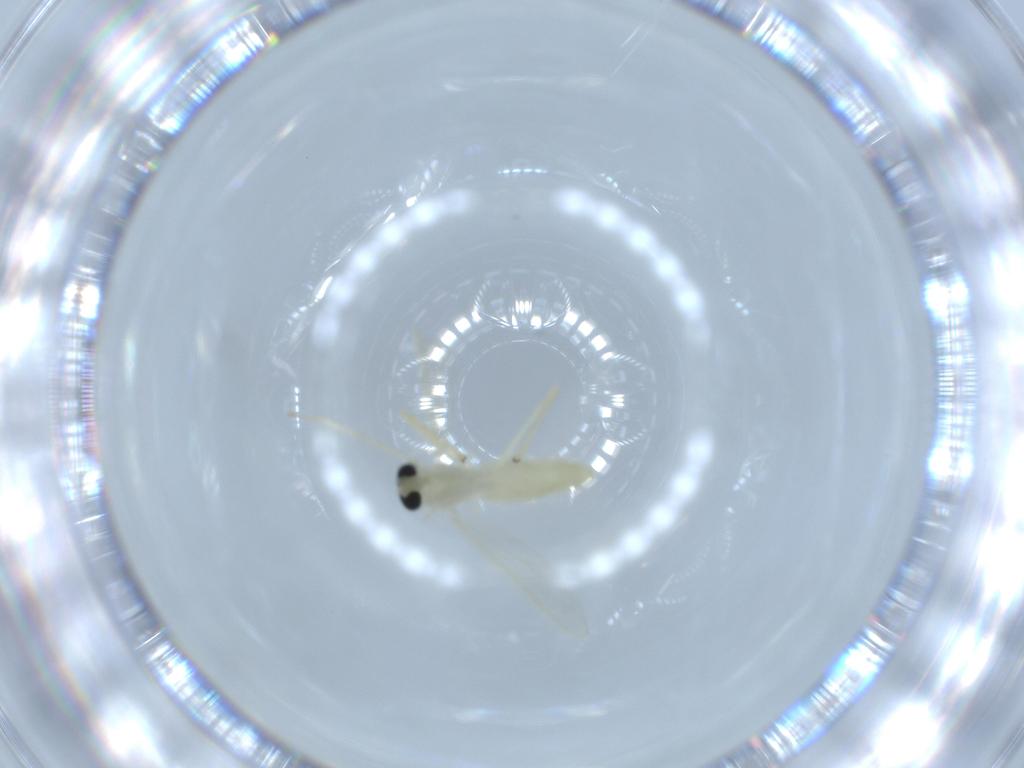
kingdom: Animalia
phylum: Arthropoda
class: Insecta
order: Diptera
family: Chironomidae
